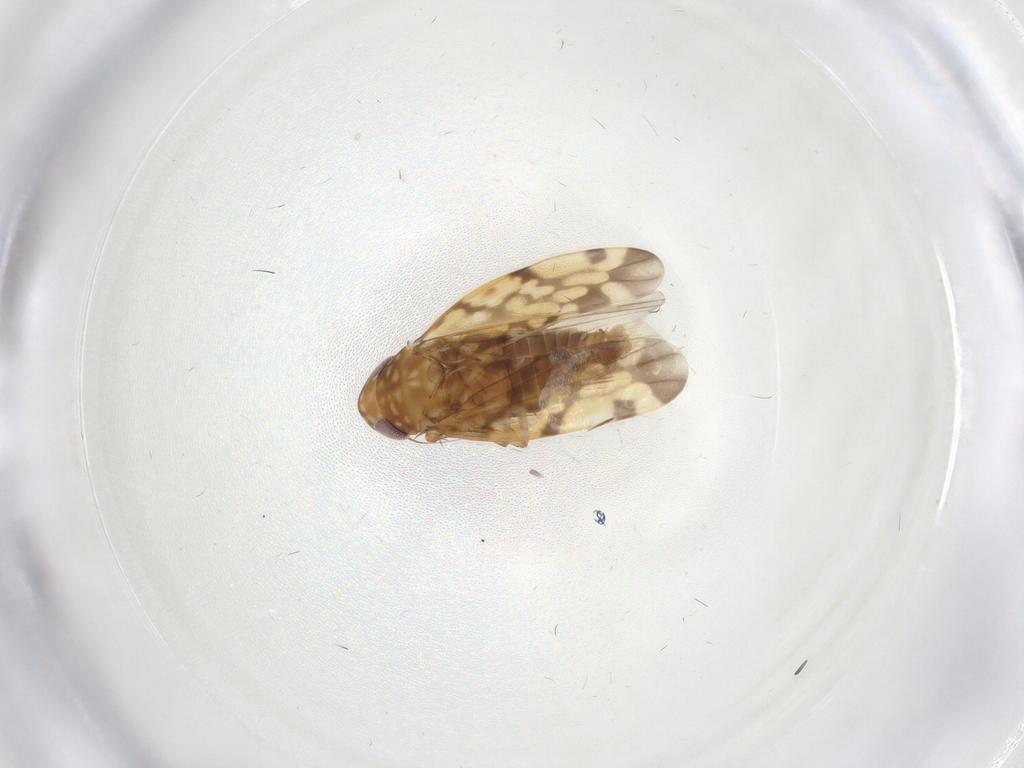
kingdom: Animalia
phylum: Arthropoda
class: Insecta
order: Hemiptera
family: Cicadellidae
